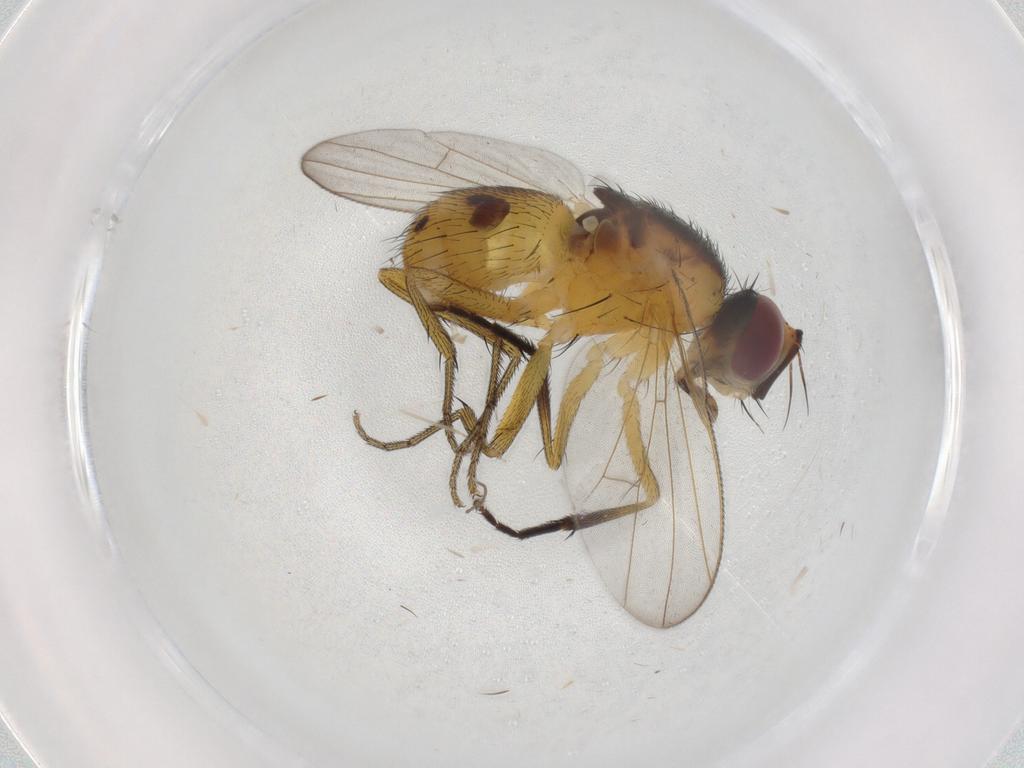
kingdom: Animalia
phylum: Arthropoda
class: Insecta
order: Diptera
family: Muscidae
